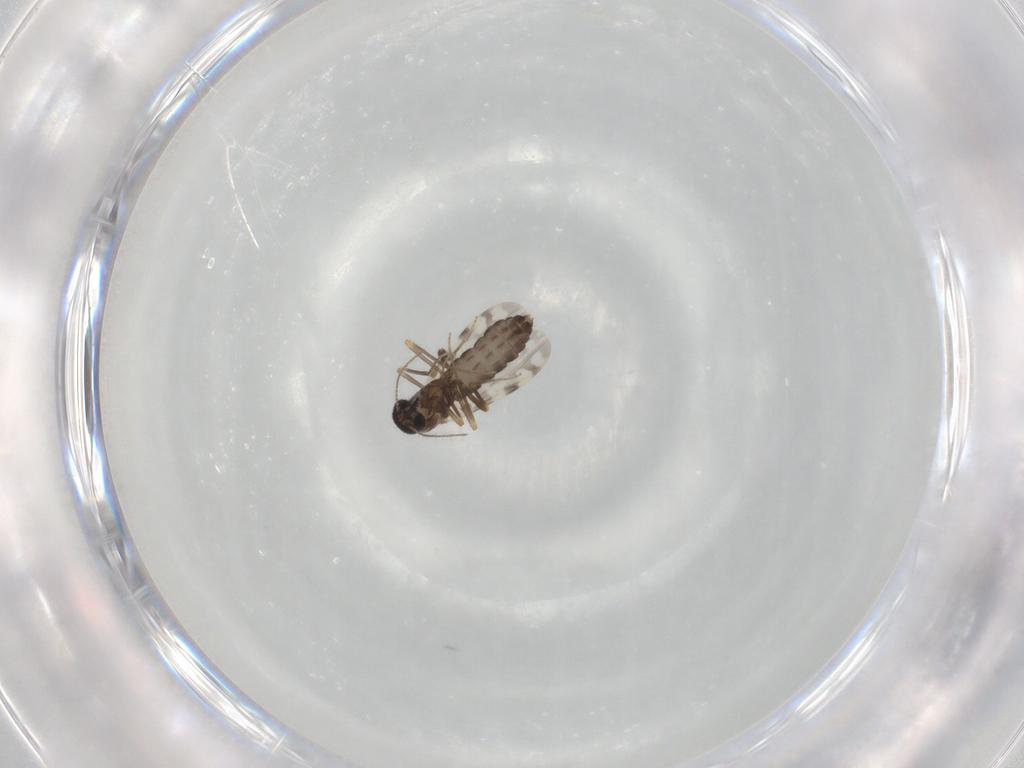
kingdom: Animalia
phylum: Arthropoda
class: Insecta
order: Diptera
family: Ceratopogonidae
